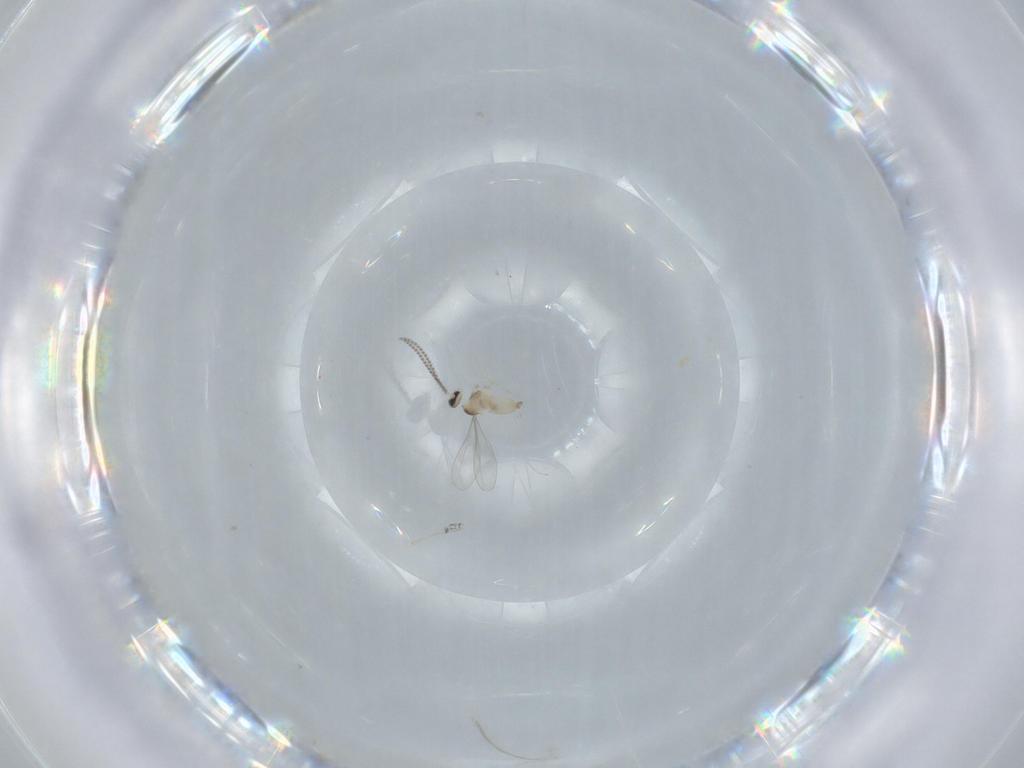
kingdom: Animalia
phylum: Arthropoda
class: Insecta
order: Diptera
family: Cecidomyiidae
